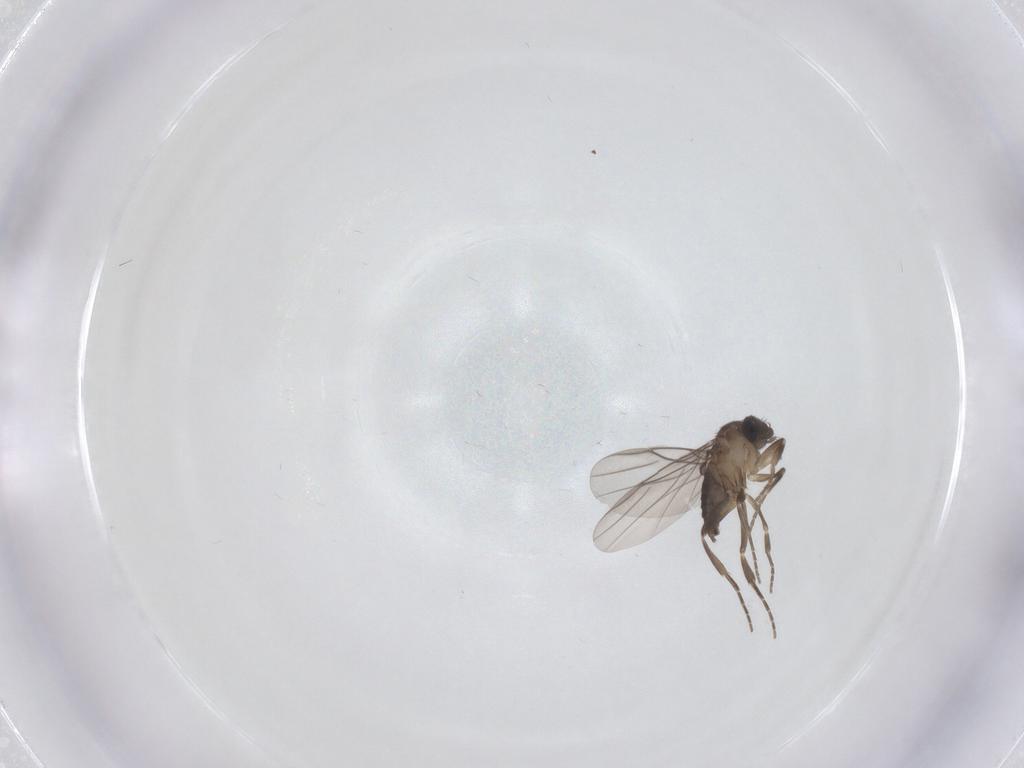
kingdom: Animalia
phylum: Arthropoda
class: Insecta
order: Diptera
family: Phoridae
